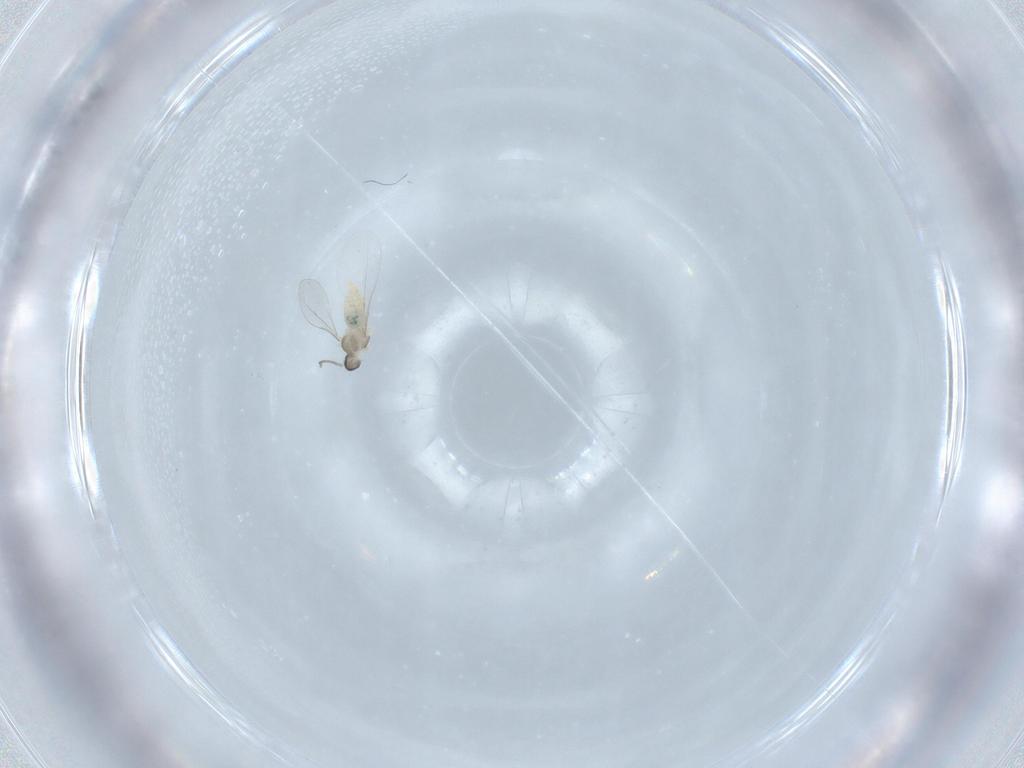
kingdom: Animalia
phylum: Arthropoda
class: Insecta
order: Diptera
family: Cecidomyiidae
